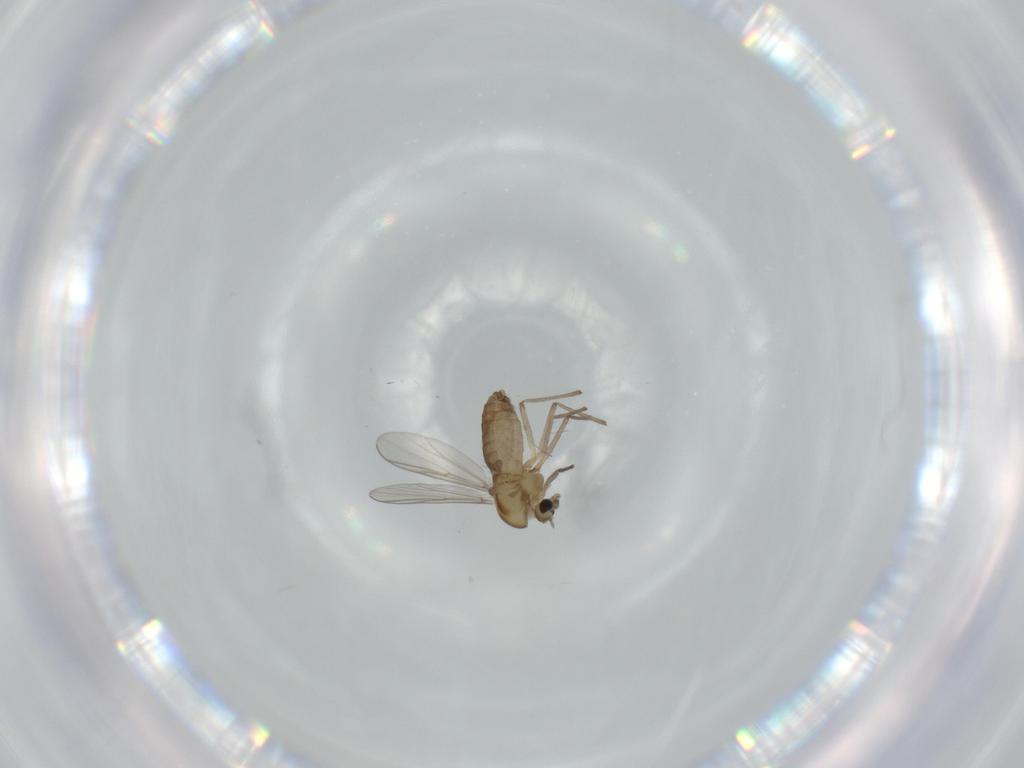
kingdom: Animalia
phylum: Arthropoda
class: Insecta
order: Diptera
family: Chironomidae
